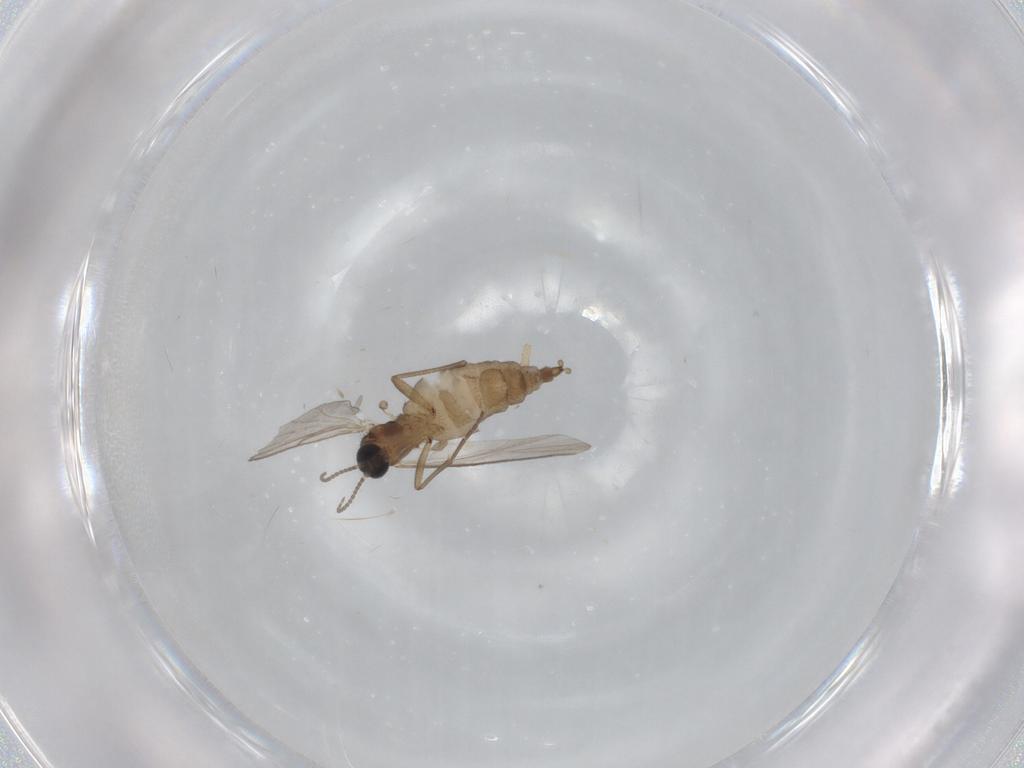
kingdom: Animalia
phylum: Arthropoda
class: Insecta
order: Diptera
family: Sciaridae
